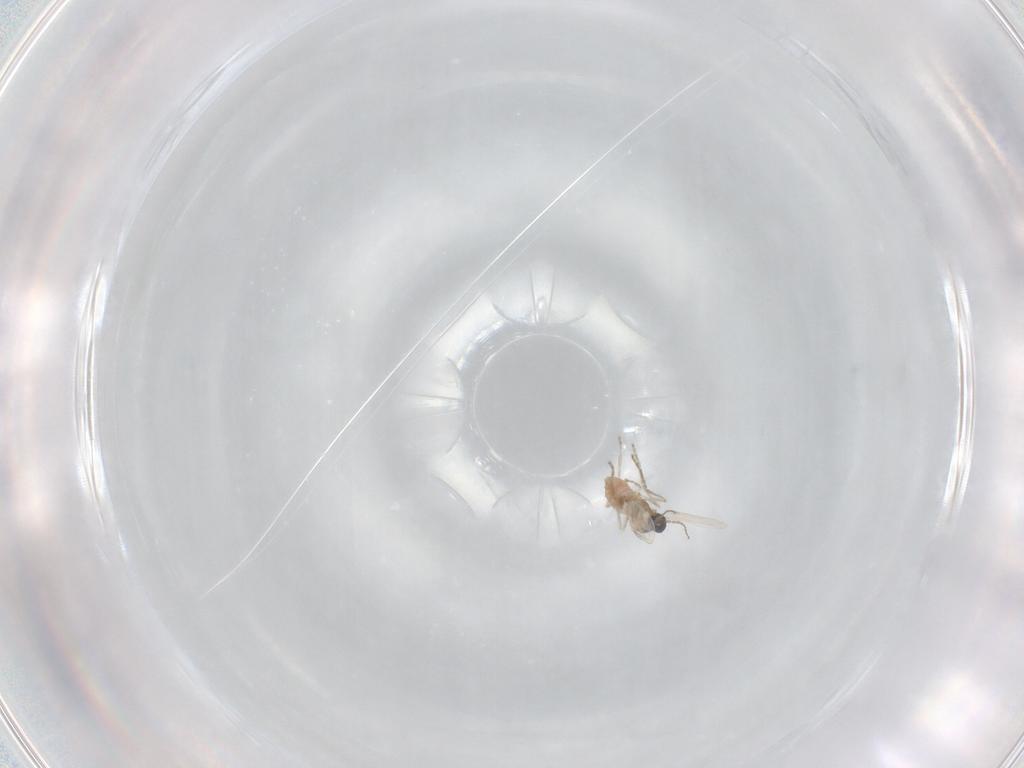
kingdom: Animalia
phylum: Arthropoda
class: Insecta
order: Diptera
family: Cecidomyiidae
